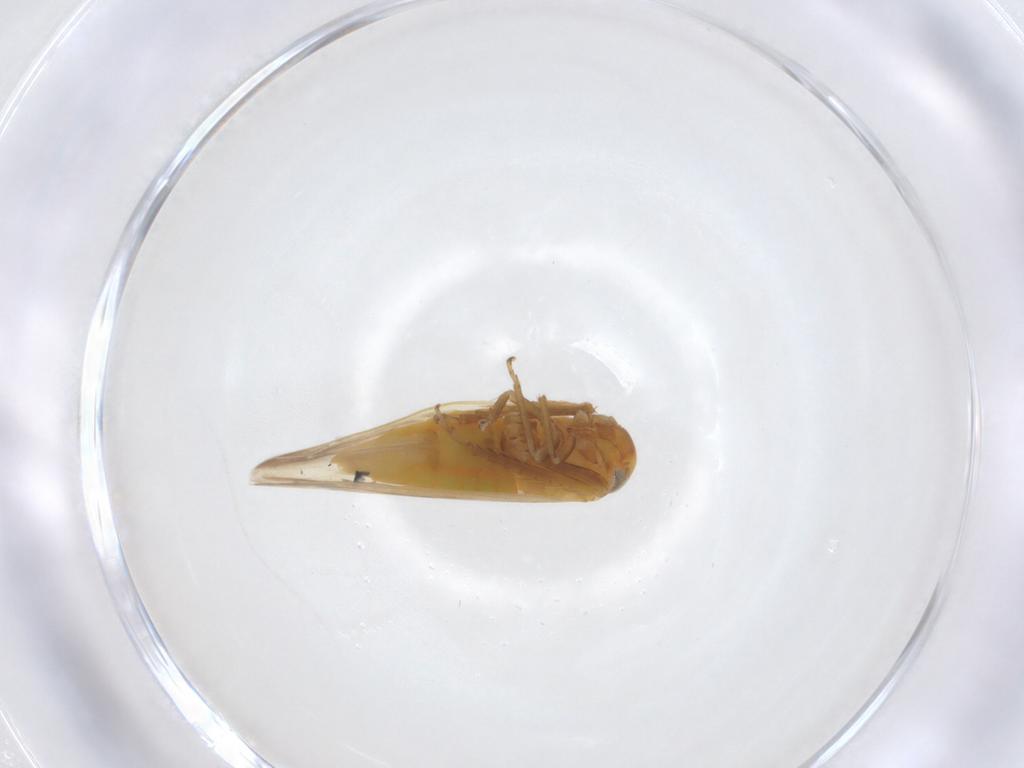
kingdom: Animalia
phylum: Arthropoda
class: Insecta
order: Hemiptera
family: Cicadellidae
